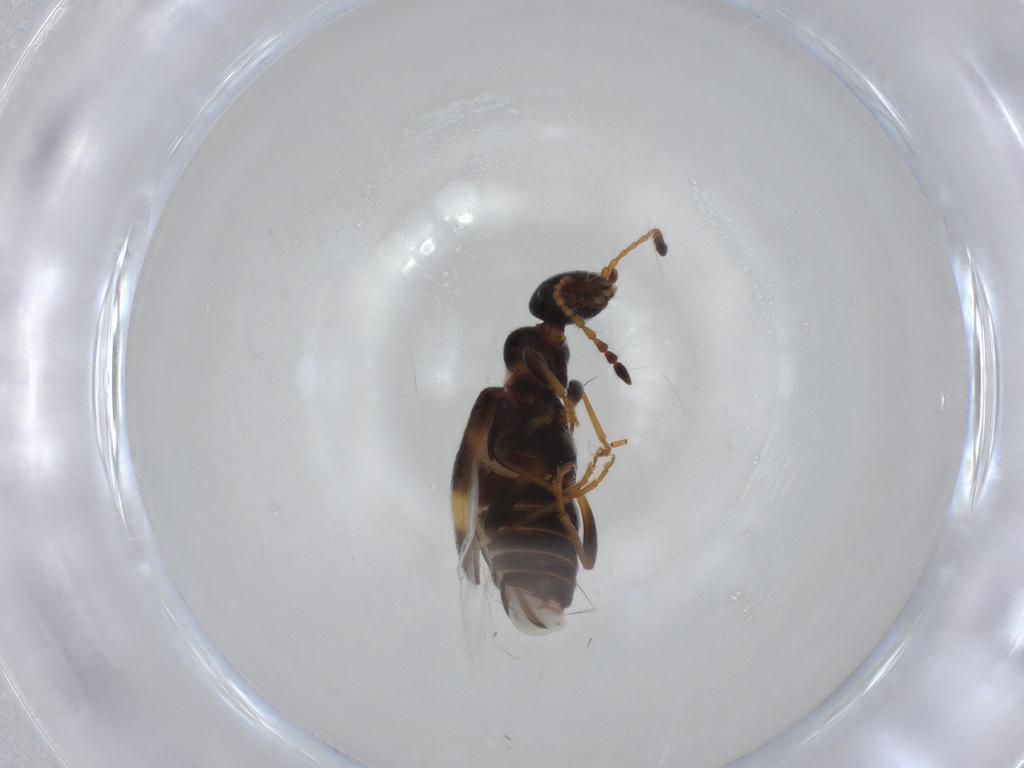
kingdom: Animalia
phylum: Arthropoda
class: Insecta
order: Coleoptera
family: Anthicidae
